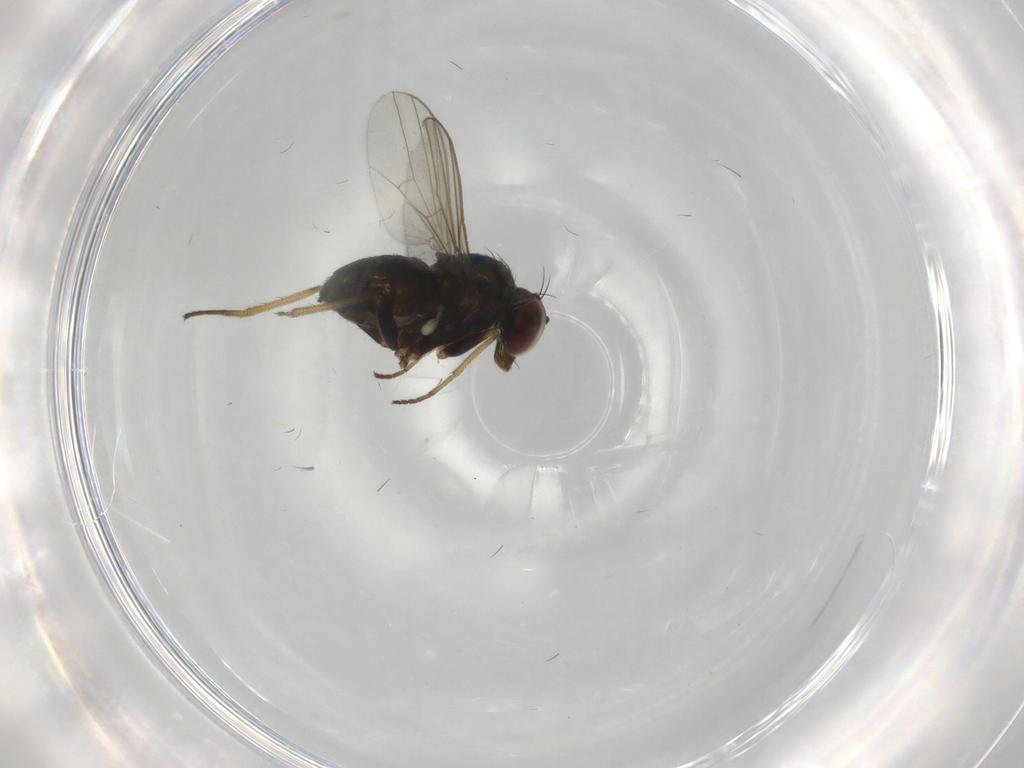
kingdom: Animalia
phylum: Arthropoda
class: Insecta
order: Diptera
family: Dolichopodidae
